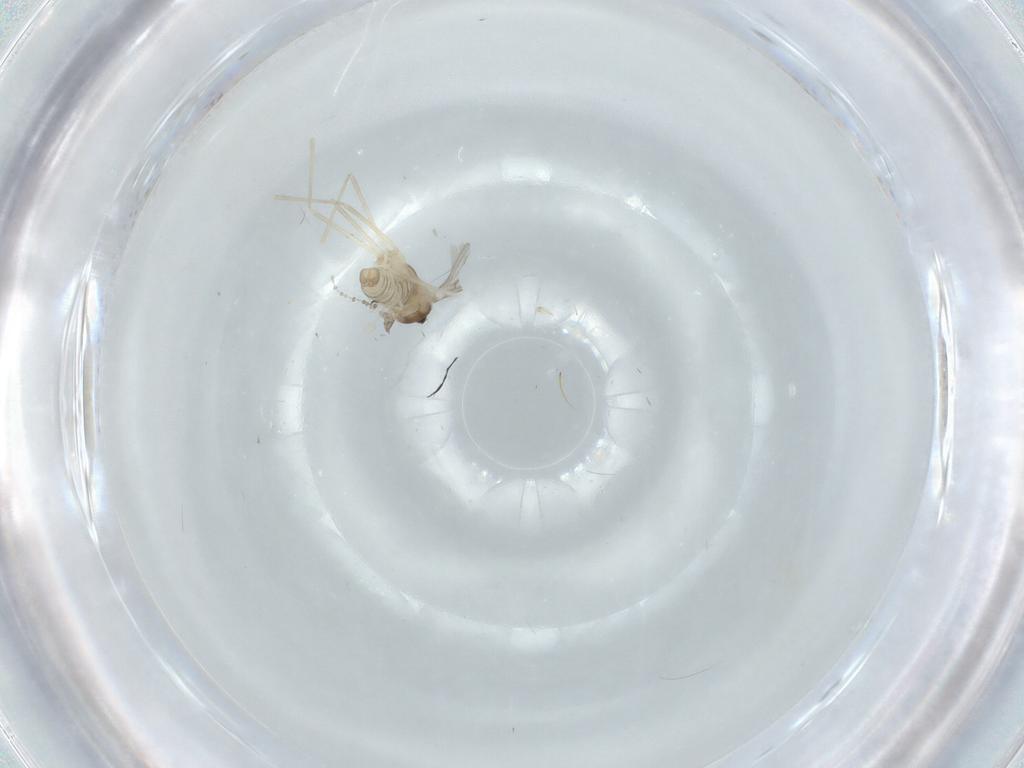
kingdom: Animalia
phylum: Arthropoda
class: Insecta
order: Diptera
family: Cecidomyiidae
